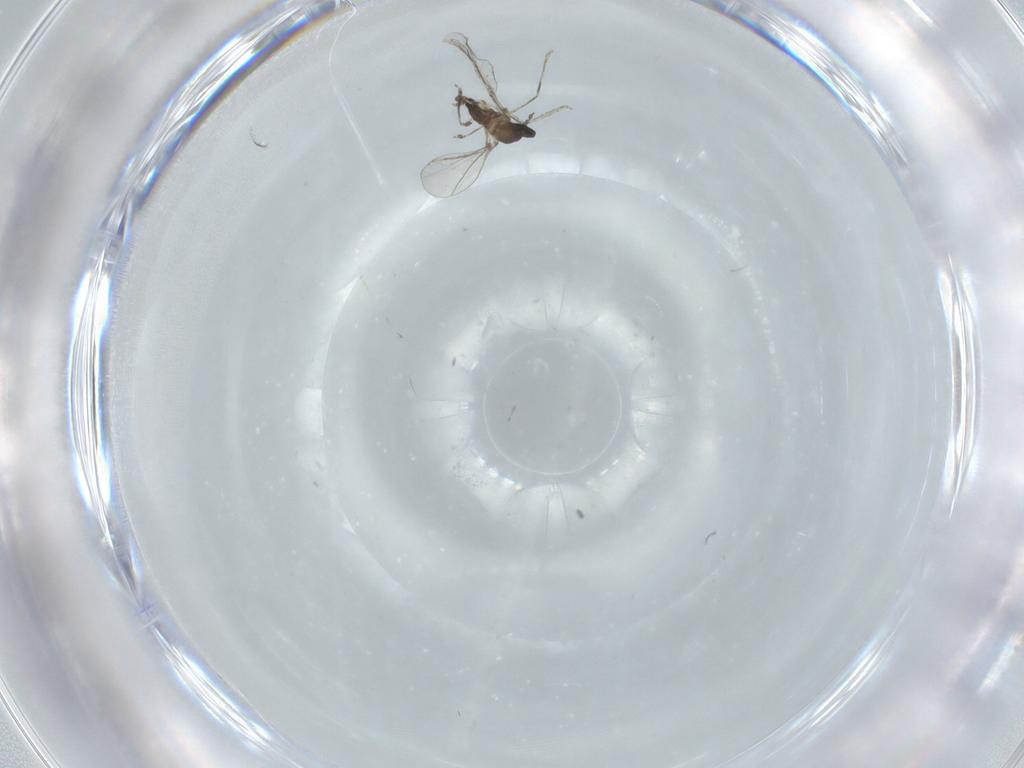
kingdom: Animalia
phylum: Arthropoda
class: Insecta
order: Diptera
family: Cecidomyiidae
